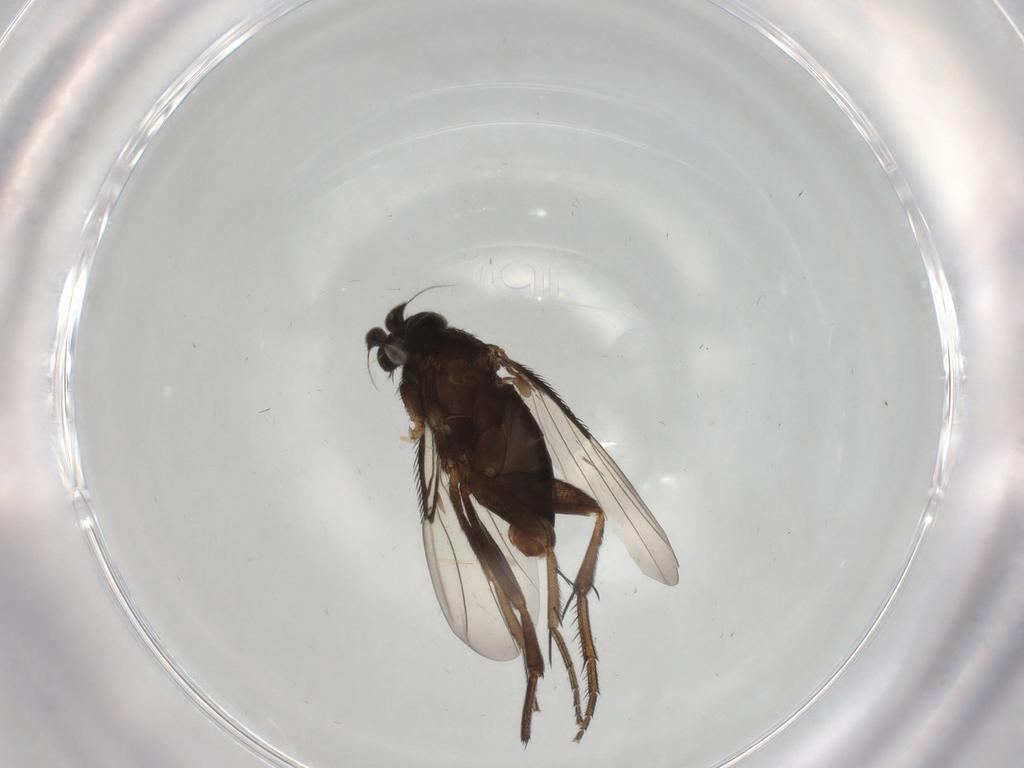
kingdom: Animalia
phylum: Arthropoda
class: Insecta
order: Diptera
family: Phoridae
